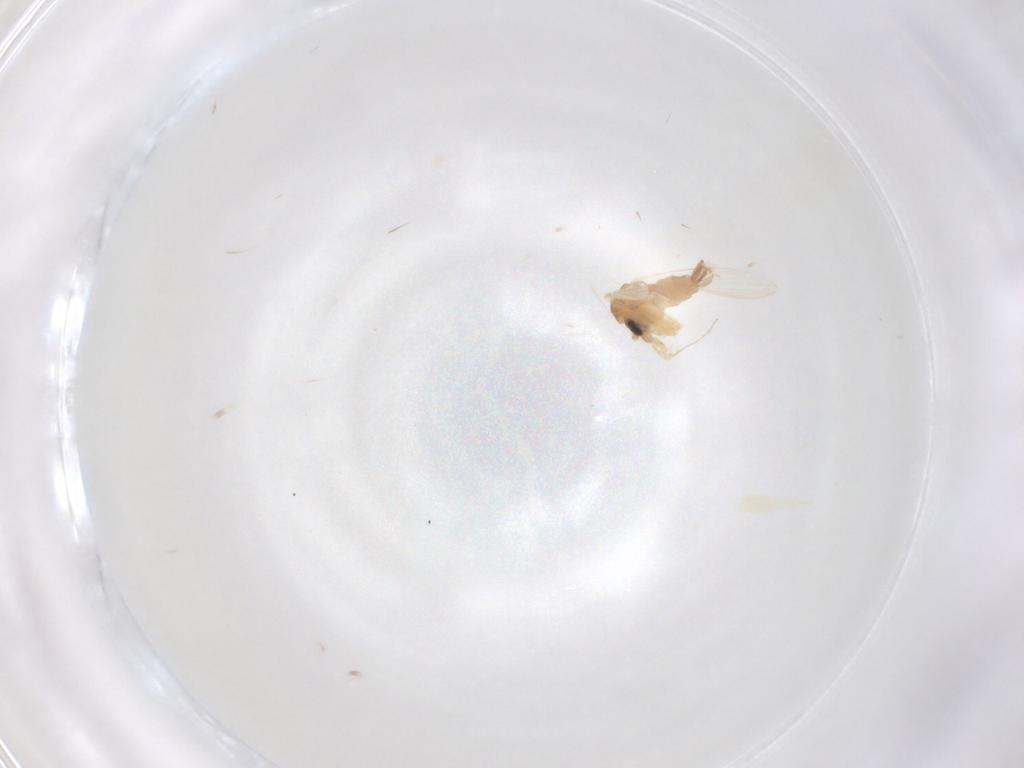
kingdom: Animalia
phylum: Arthropoda
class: Insecta
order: Diptera
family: Psychodidae
